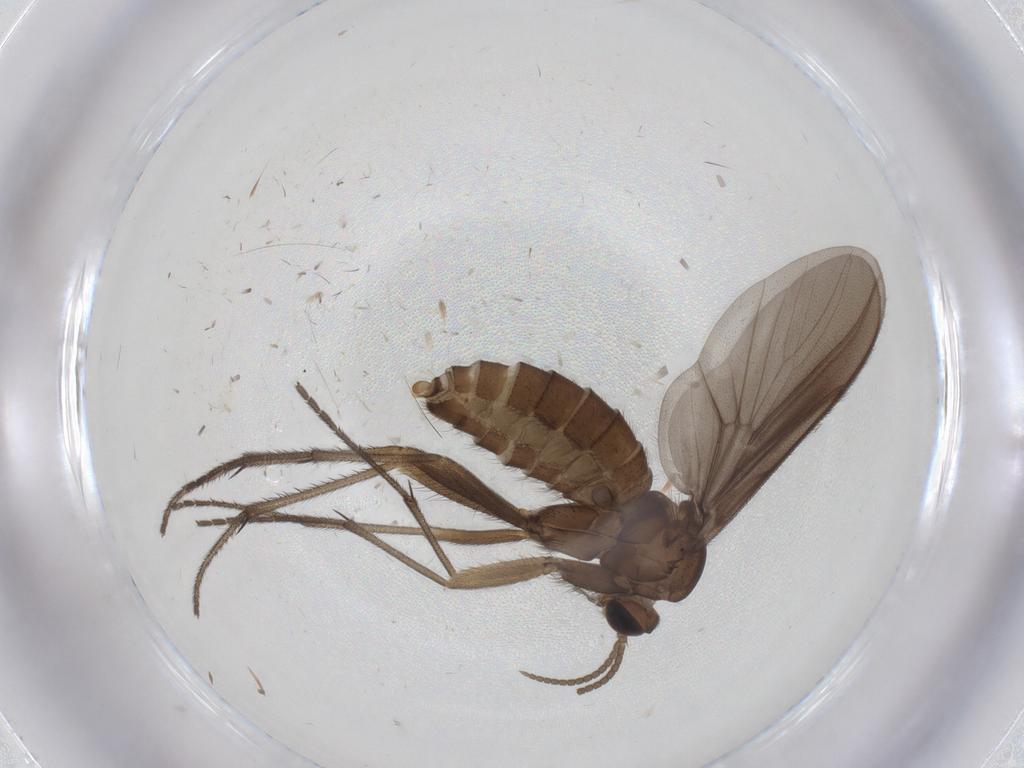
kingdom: Animalia
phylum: Arthropoda
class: Insecta
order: Diptera
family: Diadocidiidae
